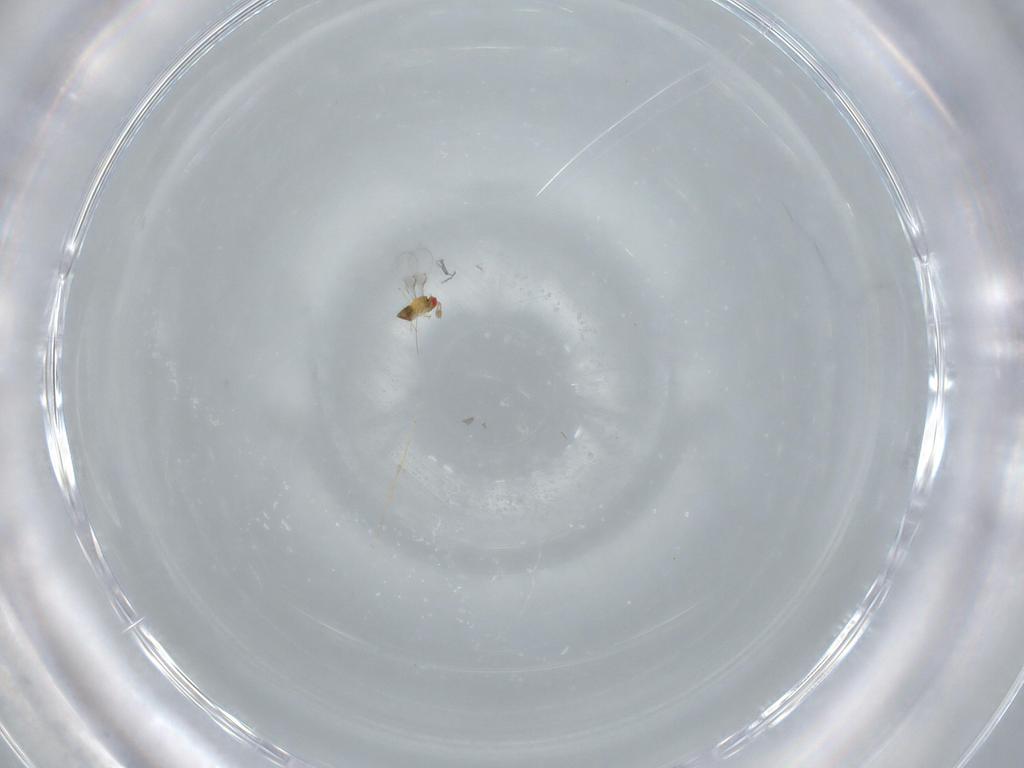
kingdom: Animalia
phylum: Arthropoda
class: Insecta
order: Hymenoptera
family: Trichogrammatidae
